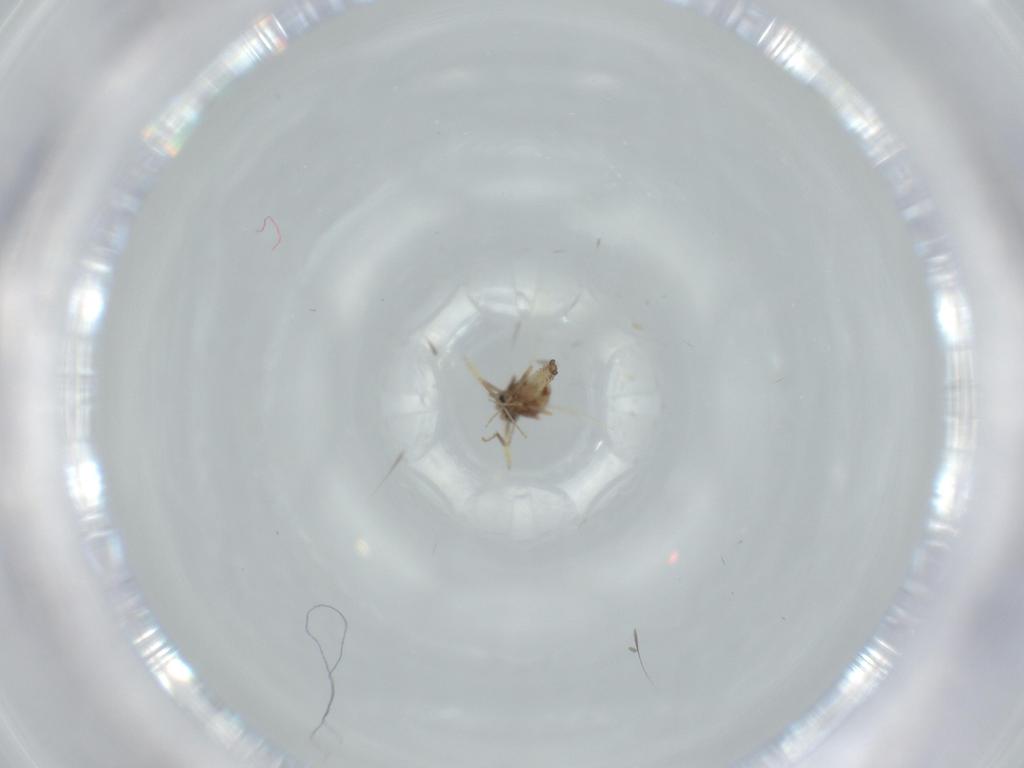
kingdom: Animalia
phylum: Arthropoda
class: Insecta
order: Diptera
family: Ceratopogonidae
